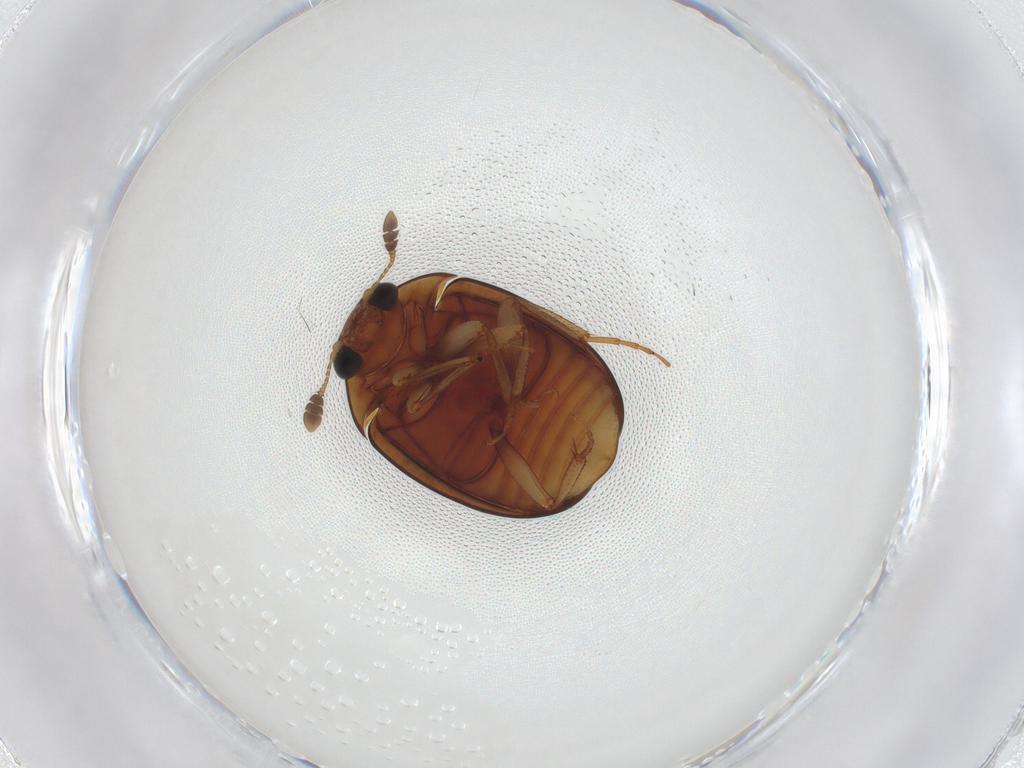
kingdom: Animalia
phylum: Arthropoda
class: Insecta
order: Coleoptera
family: Nitidulidae
